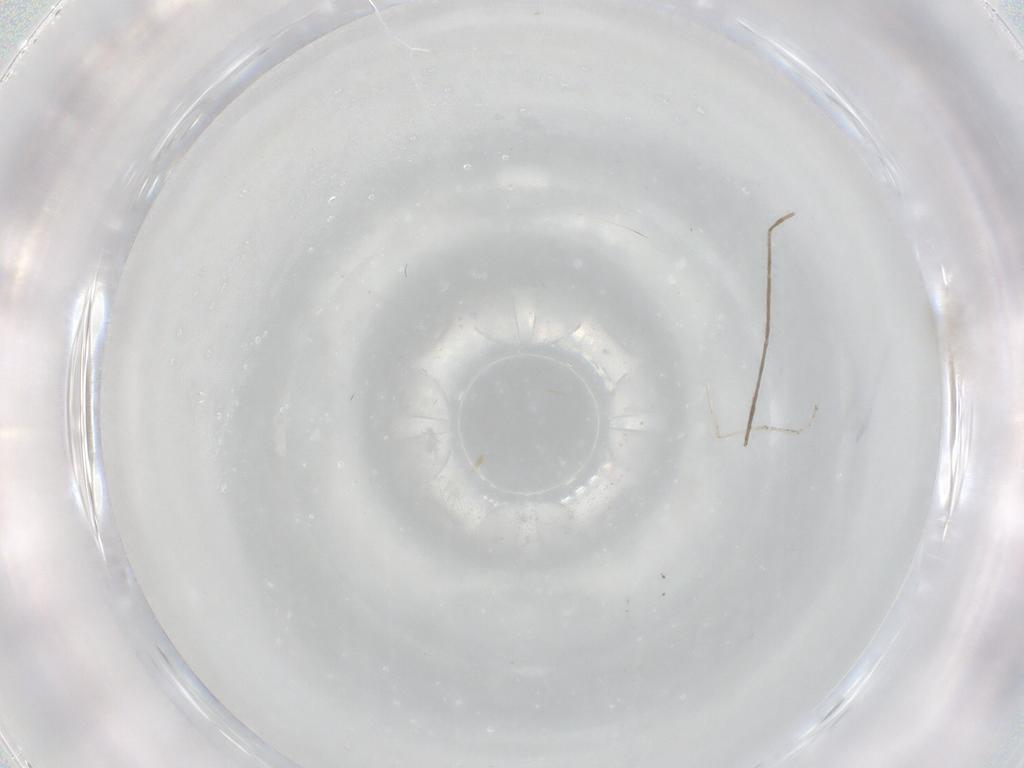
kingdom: Animalia
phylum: Arthropoda
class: Insecta
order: Diptera
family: Cecidomyiidae
